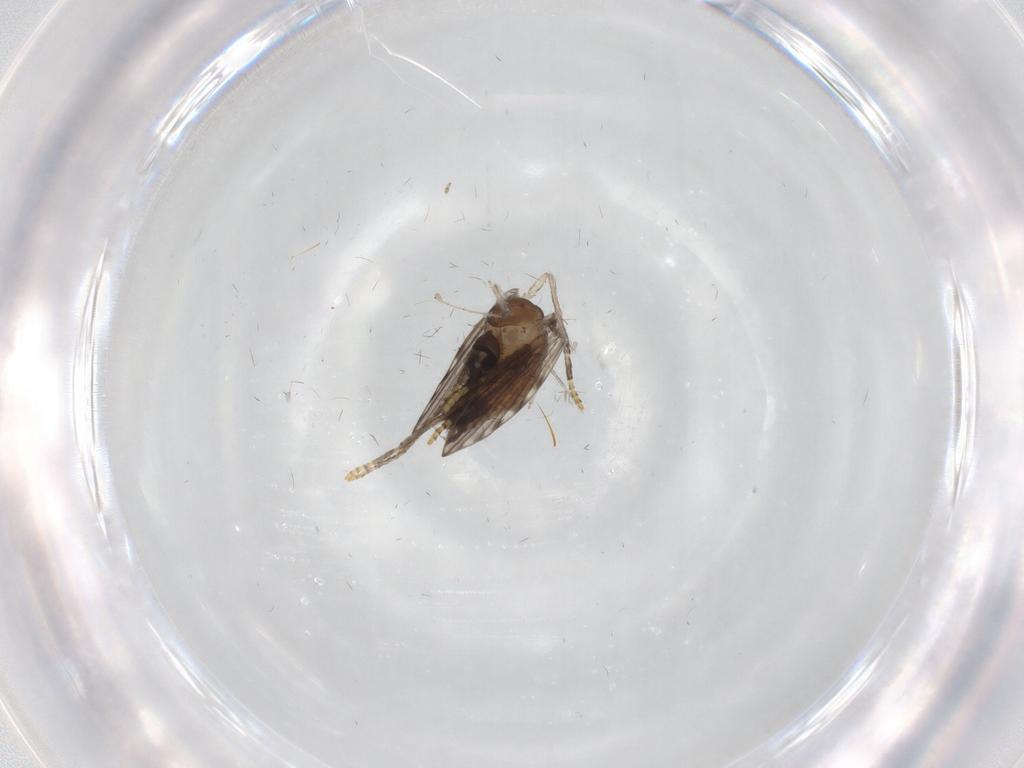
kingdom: Animalia
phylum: Arthropoda
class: Insecta
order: Diptera
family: Psychodidae
